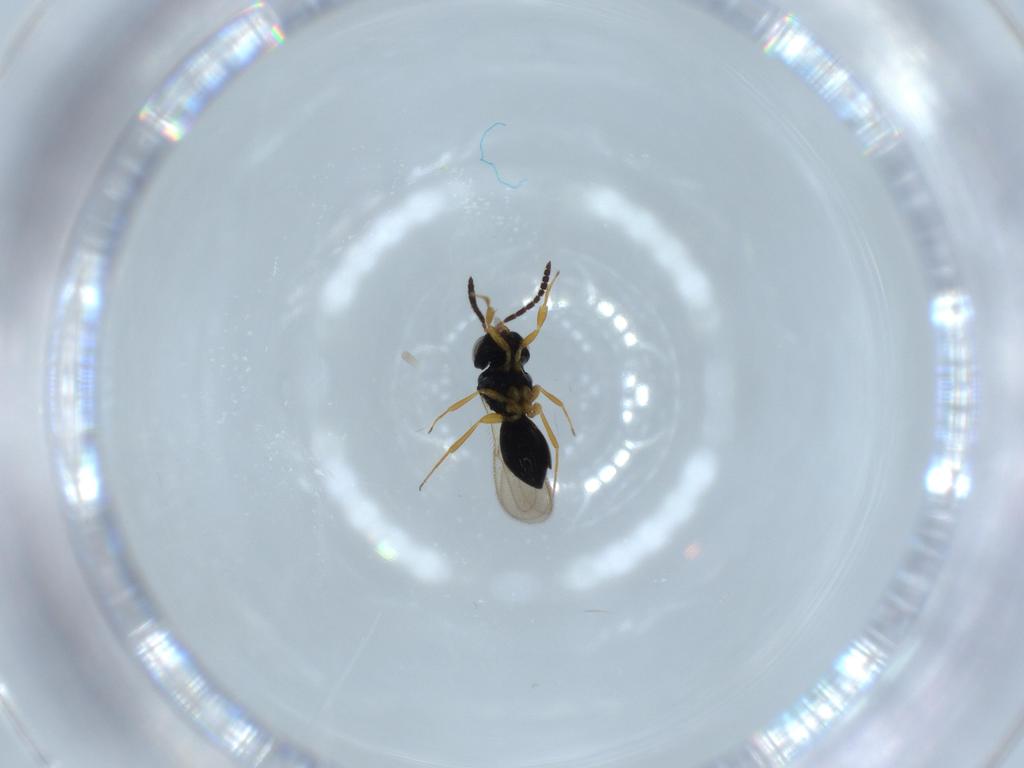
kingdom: Animalia
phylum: Arthropoda
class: Insecta
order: Hymenoptera
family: Scelionidae
